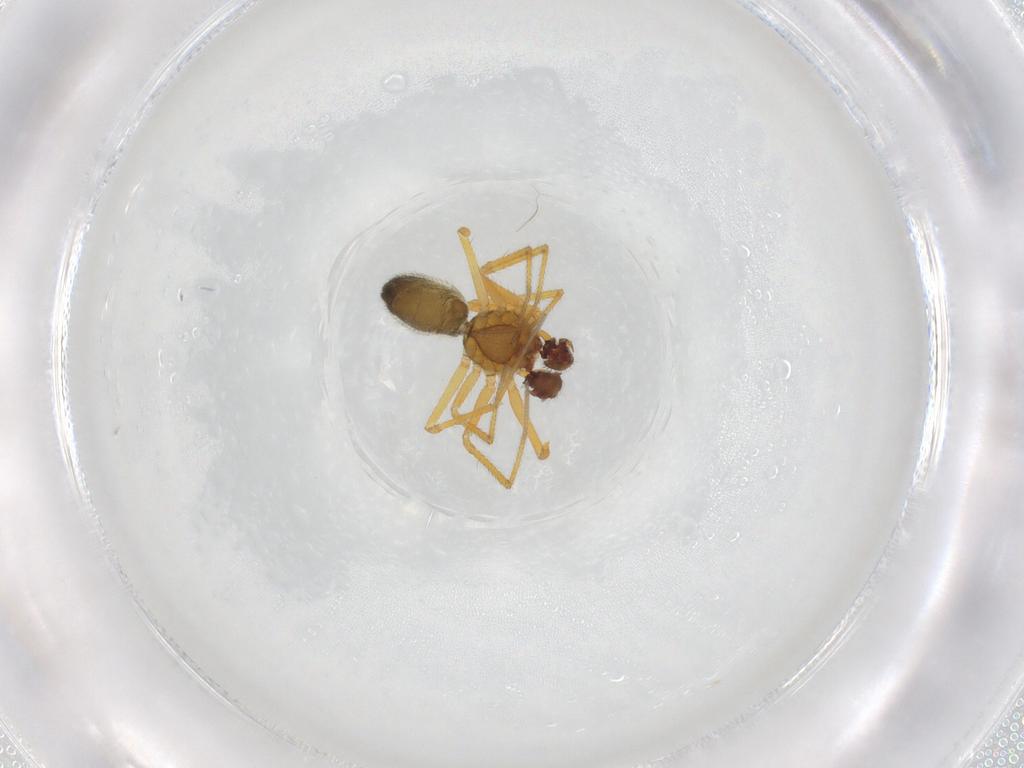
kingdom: Animalia
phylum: Arthropoda
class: Arachnida
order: Araneae
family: Linyphiidae
